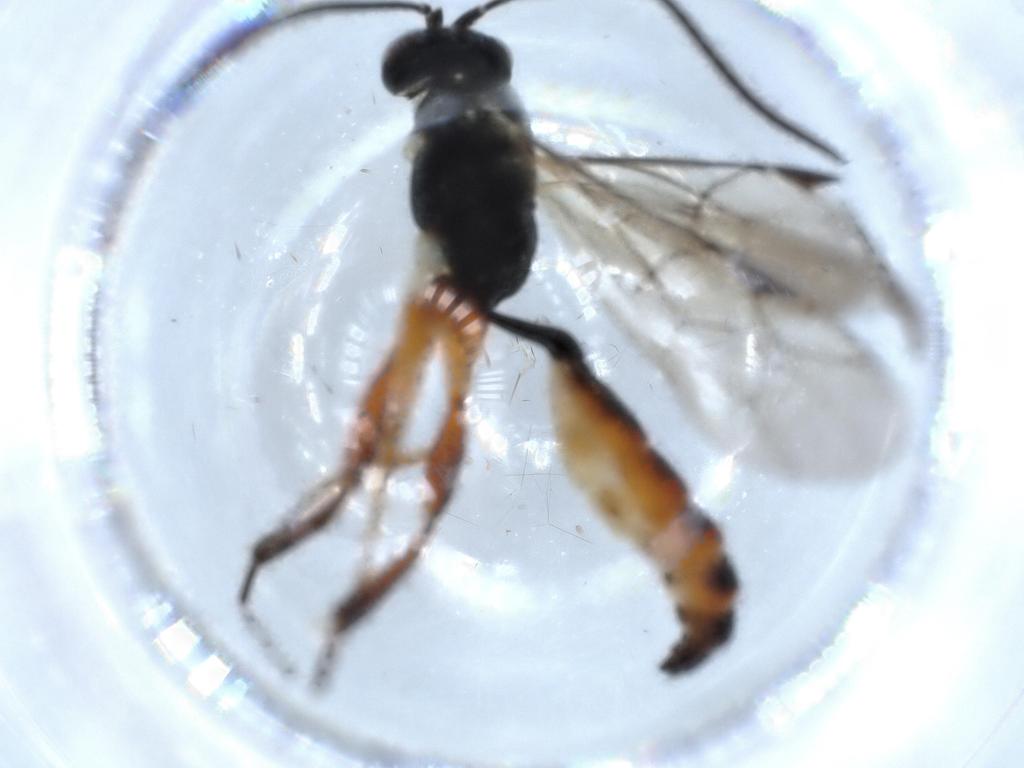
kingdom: Animalia
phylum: Arthropoda
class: Insecta
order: Hymenoptera
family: Ichneumonidae
